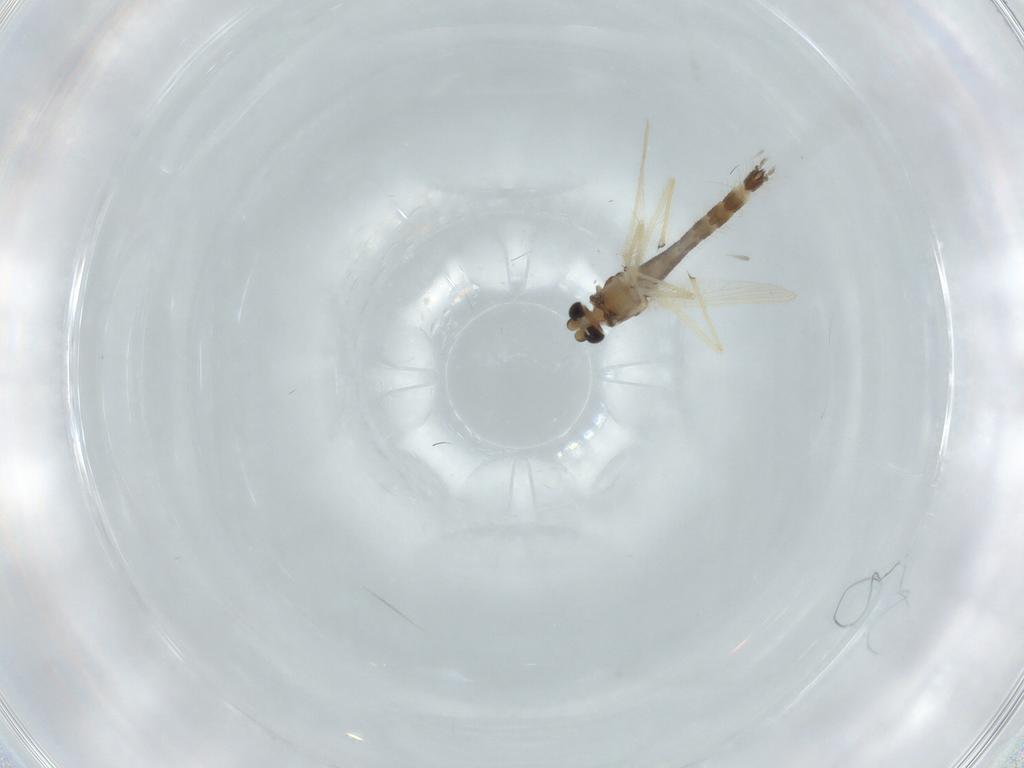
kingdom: Animalia
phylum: Arthropoda
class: Insecta
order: Diptera
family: Chironomidae
